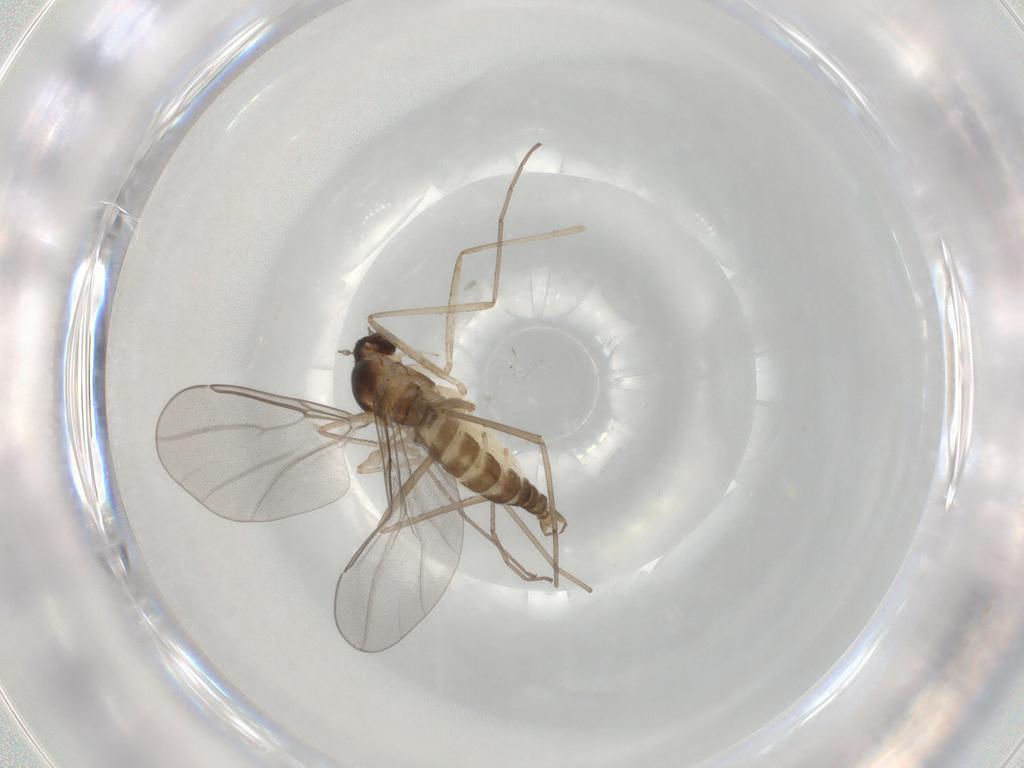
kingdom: Animalia
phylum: Arthropoda
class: Insecta
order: Diptera
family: Cecidomyiidae
